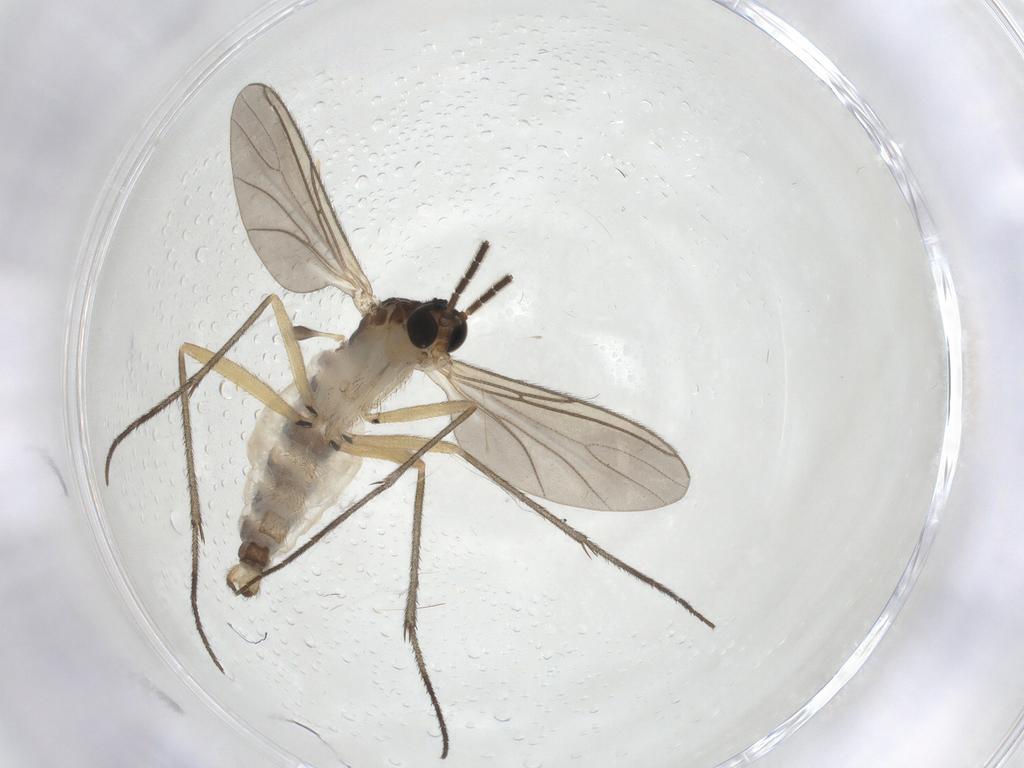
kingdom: Animalia
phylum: Arthropoda
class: Insecta
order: Diptera
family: Sciaridae
